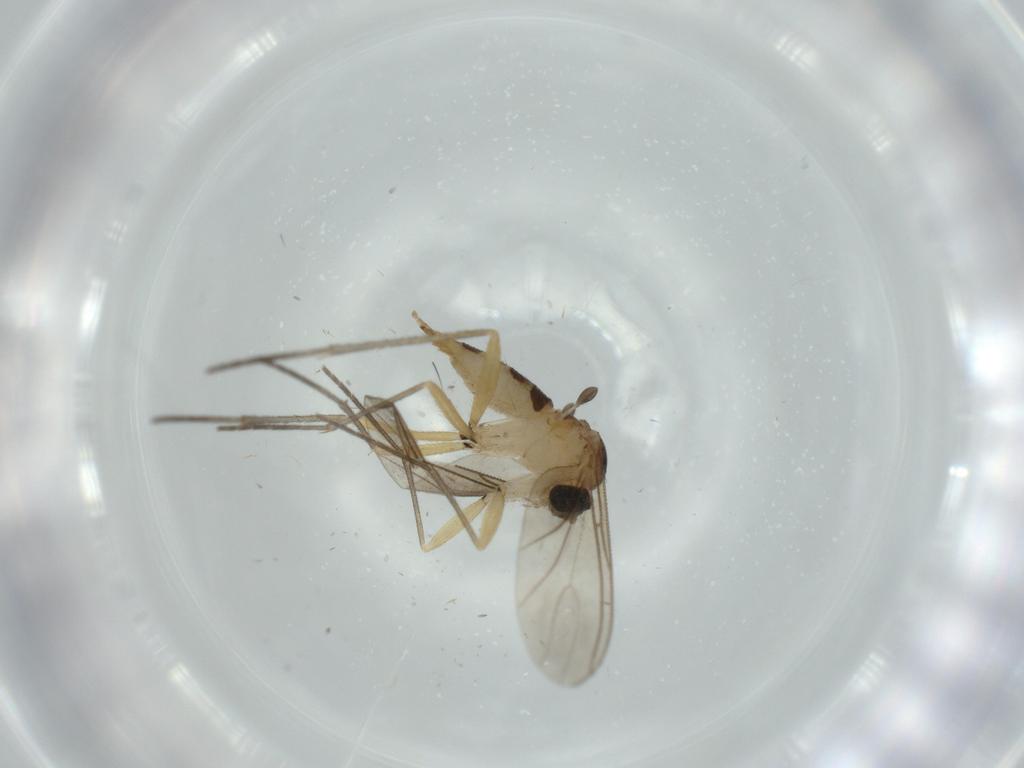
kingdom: Animalia
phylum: Arthropoda
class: Insecta
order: Diptera
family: Sciaridae
